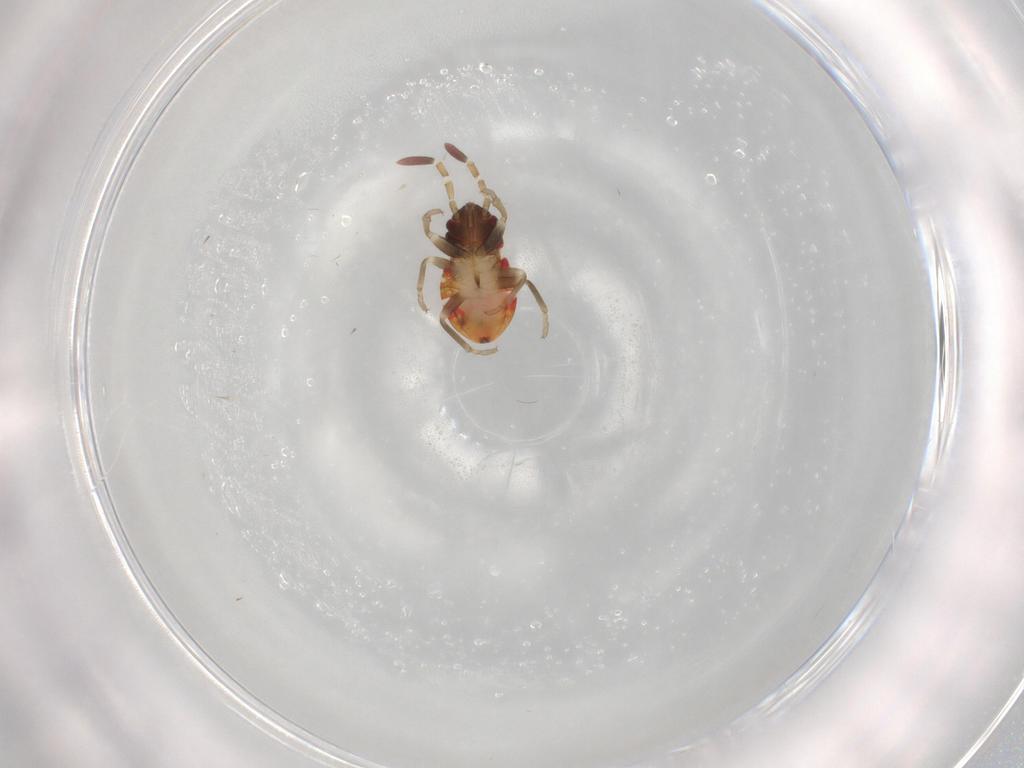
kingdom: Animalia
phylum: Arthropoda
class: Insecta
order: Hemiptera
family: Rhyparochromidae
